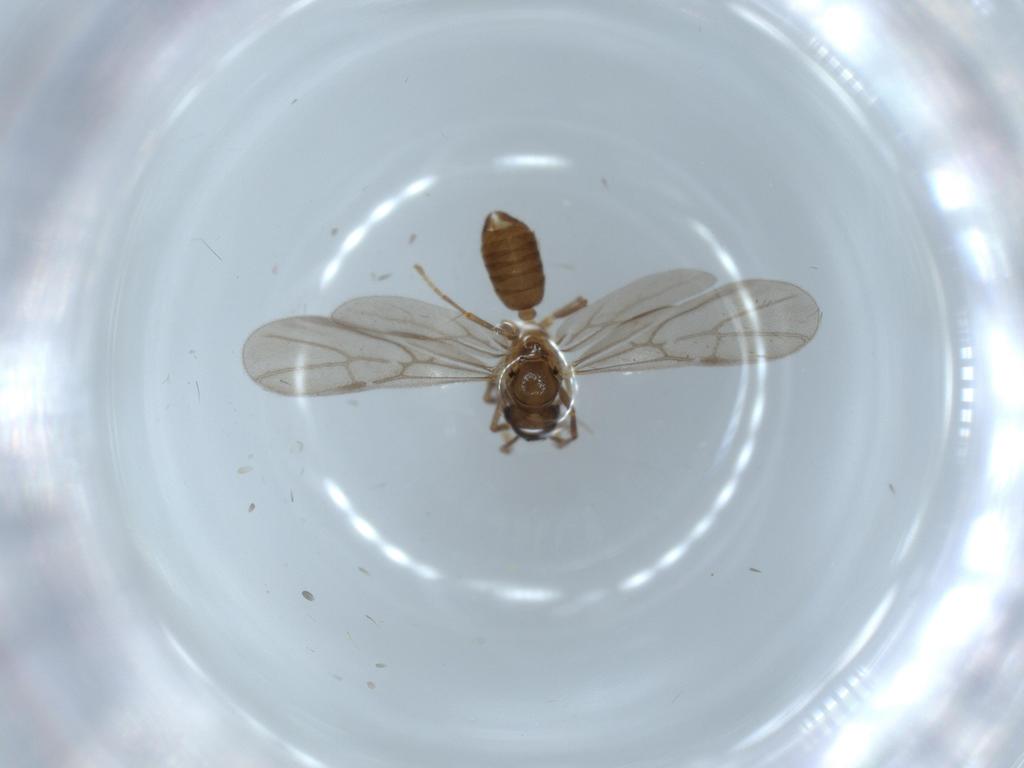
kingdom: Animalia
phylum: Arthropoda
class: Insecta
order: Hymenoptera
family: Formicidae
